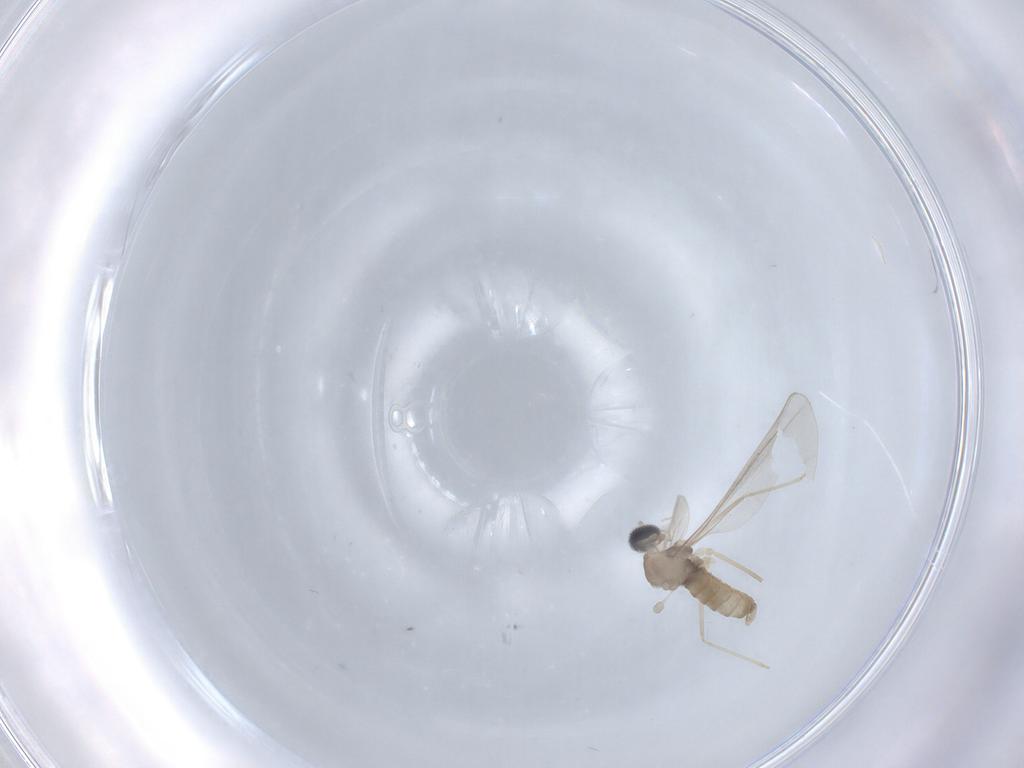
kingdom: Animalia
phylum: Arthropoda
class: Insecta
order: Diptera
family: Cecidomyiidae
